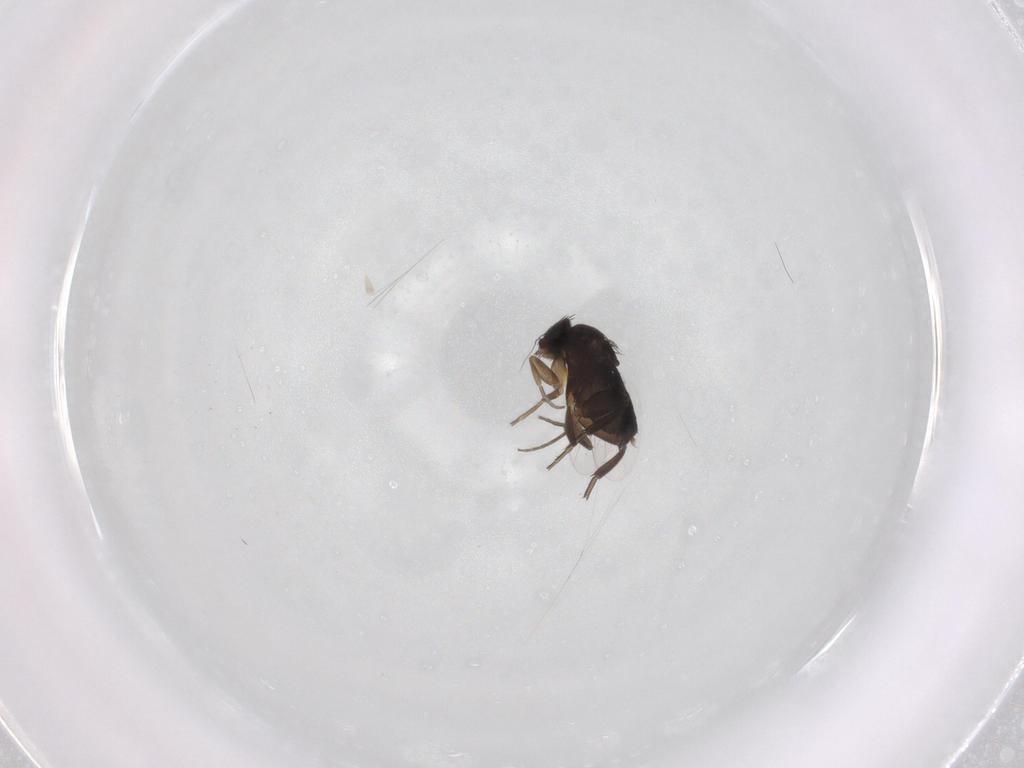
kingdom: Animalia
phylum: Arthropoda
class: Insecta
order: Diptera
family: Phoridae
